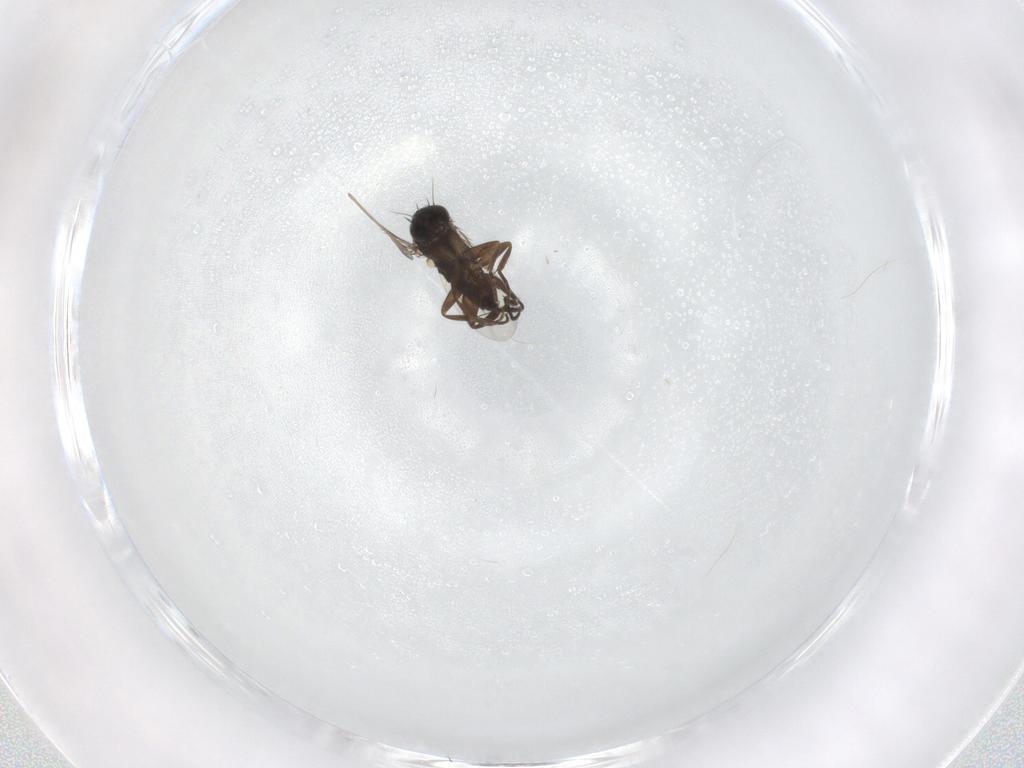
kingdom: Animalia
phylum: Arthropoda
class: Insecta
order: Diptera
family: Phoridae
